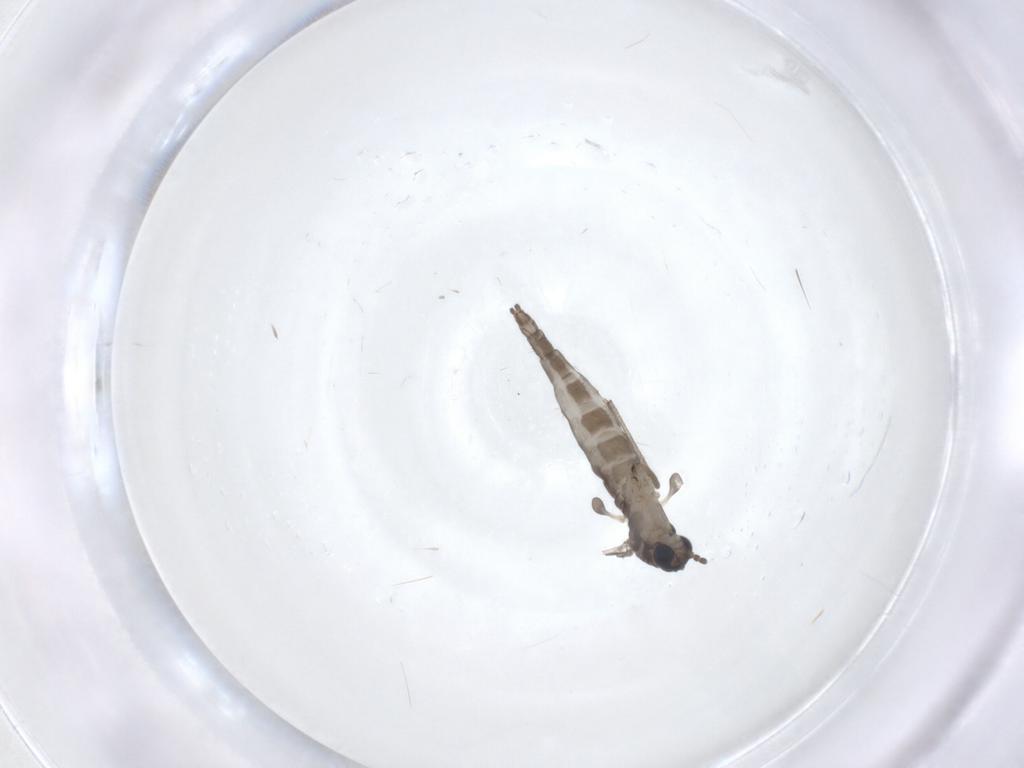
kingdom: Animalia
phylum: Arthropoda
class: Insecta
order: Diptera
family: Sciaridae
